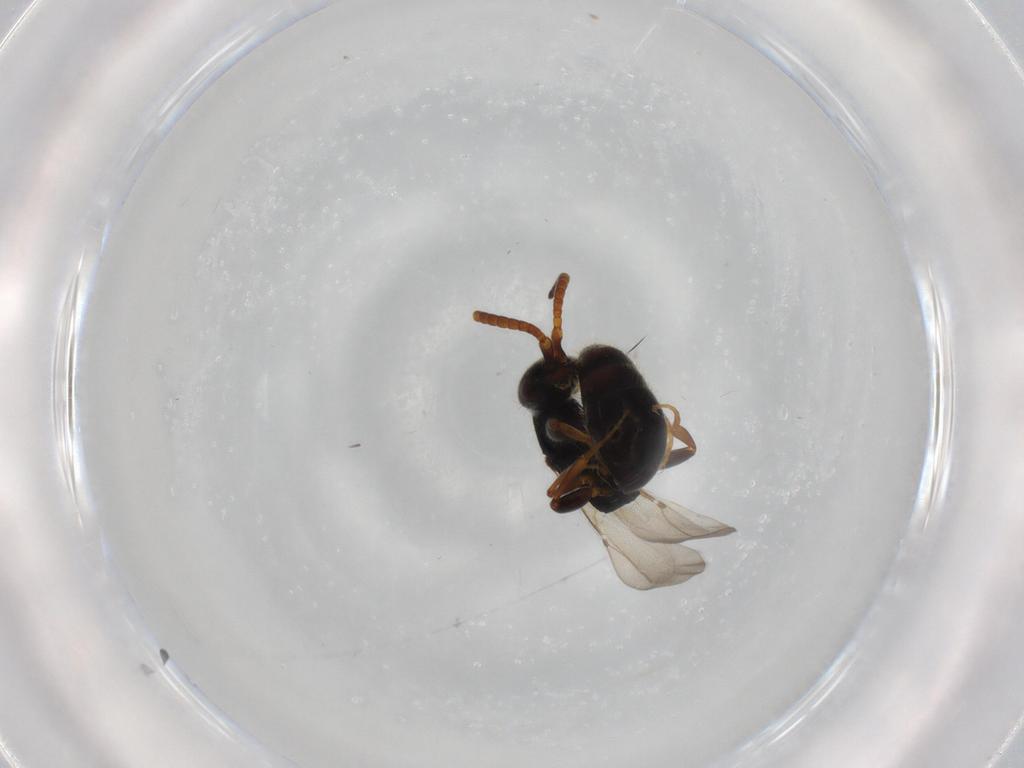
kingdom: Animalia
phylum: Arthropoda
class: Insecta
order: Hymenoptera
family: Bethylidae
